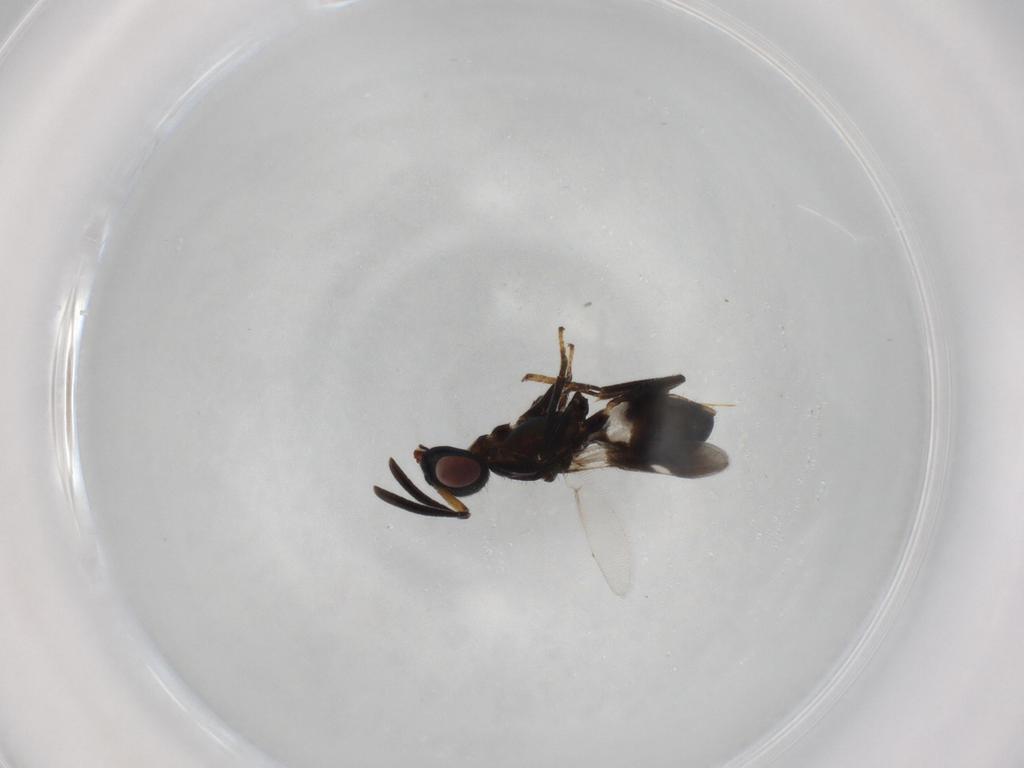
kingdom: Animalia
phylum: Arthropoda
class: Insecta
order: Hymenoptera
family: Eupelmidae
